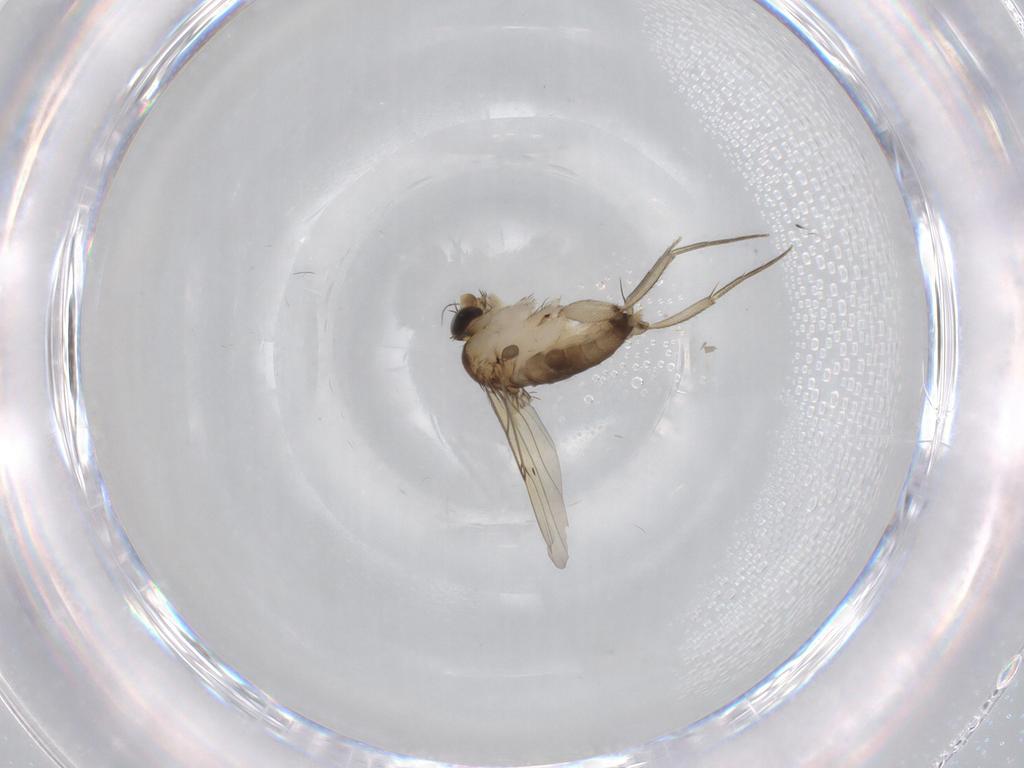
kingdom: Animalia
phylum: Arthropoda
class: Insecta
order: Diptera
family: Phoridae
